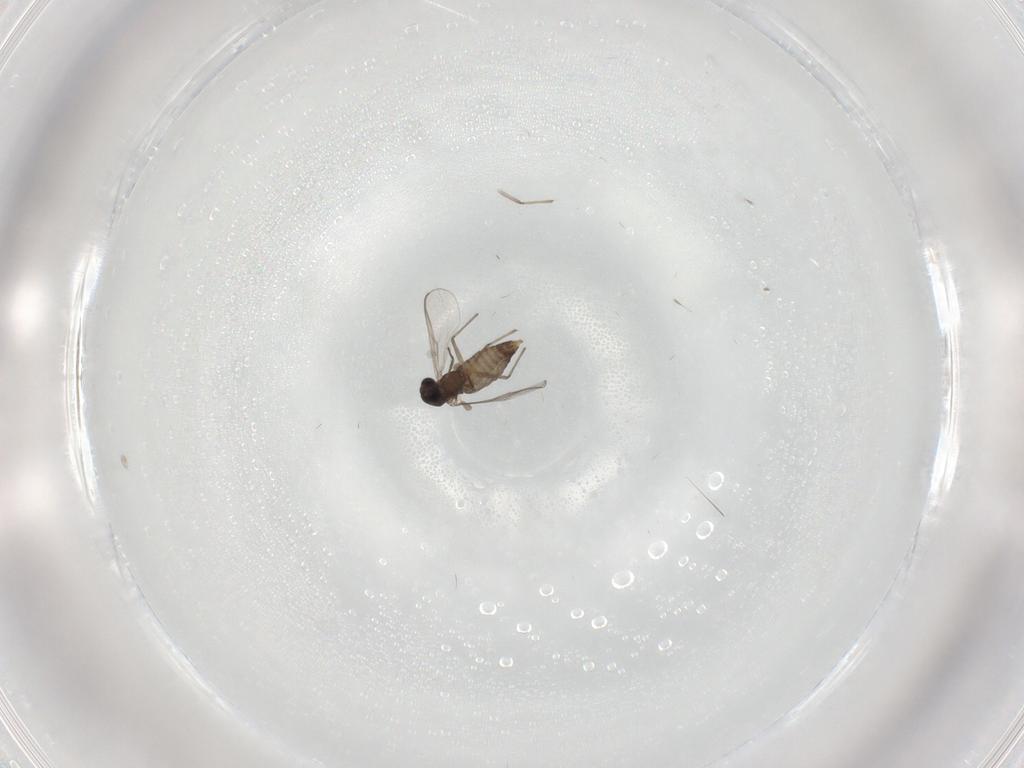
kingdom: Animalia
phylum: Arthropoda
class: Insecta
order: Diptera
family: Chironomidae
